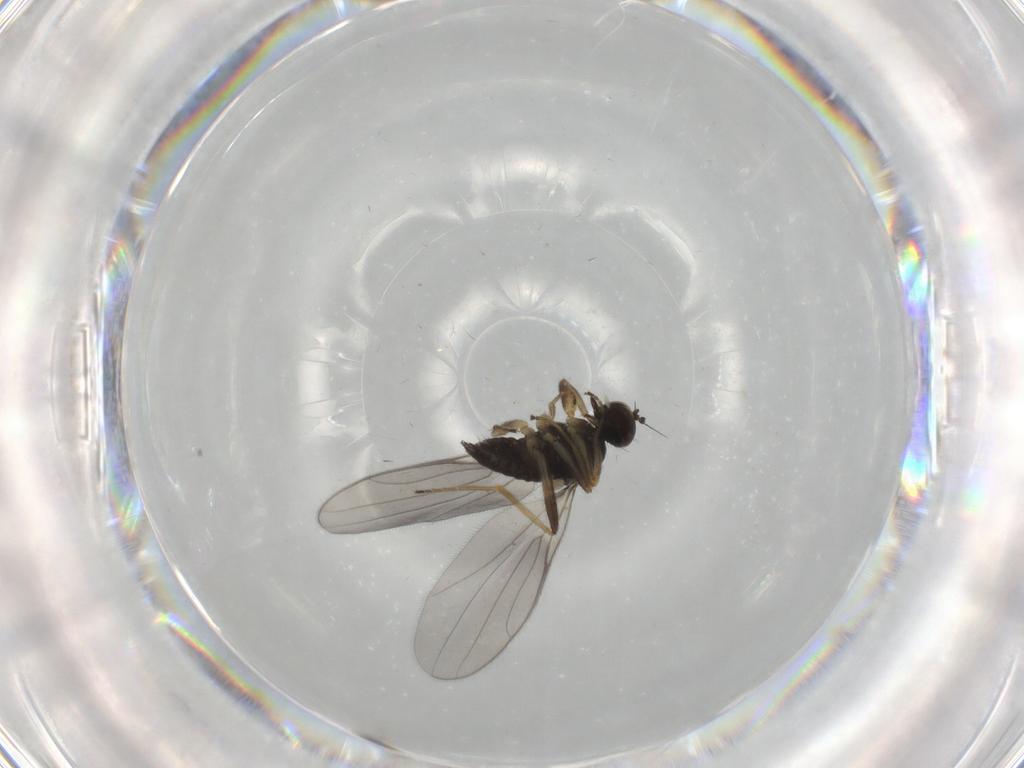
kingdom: Animalia
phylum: Arthropoda
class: Insecta
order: Diptera
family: Hybotidae
